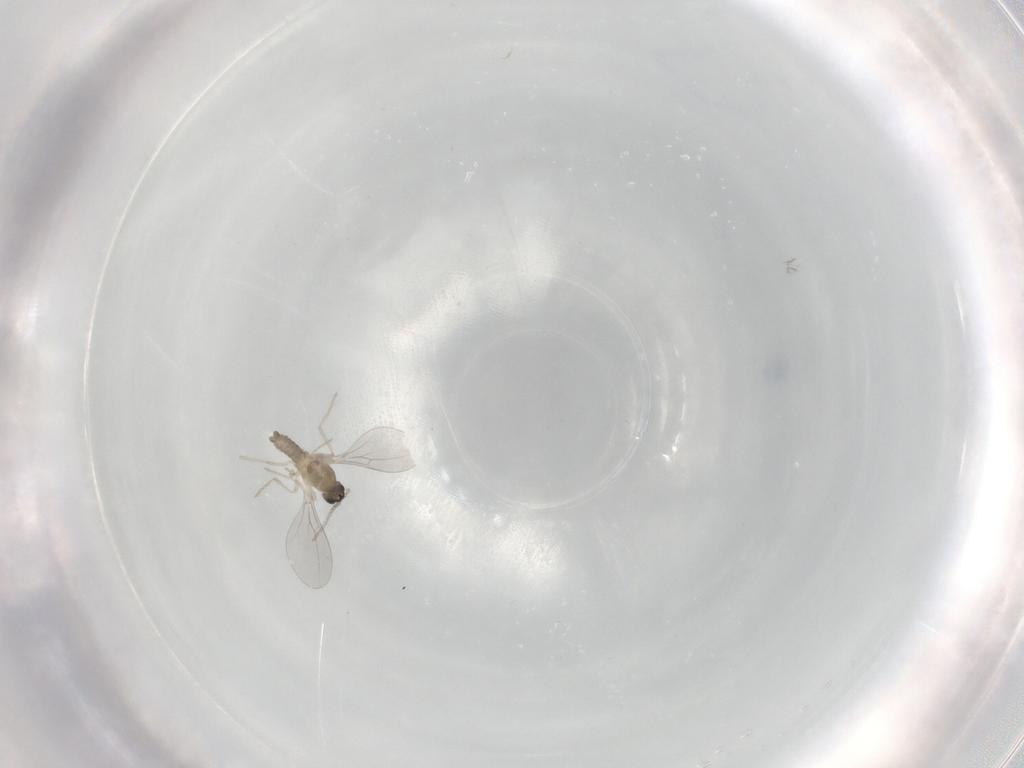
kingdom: Animalia
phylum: Arthropoda
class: Insecta
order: Diptera
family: Cecidomyiidae
